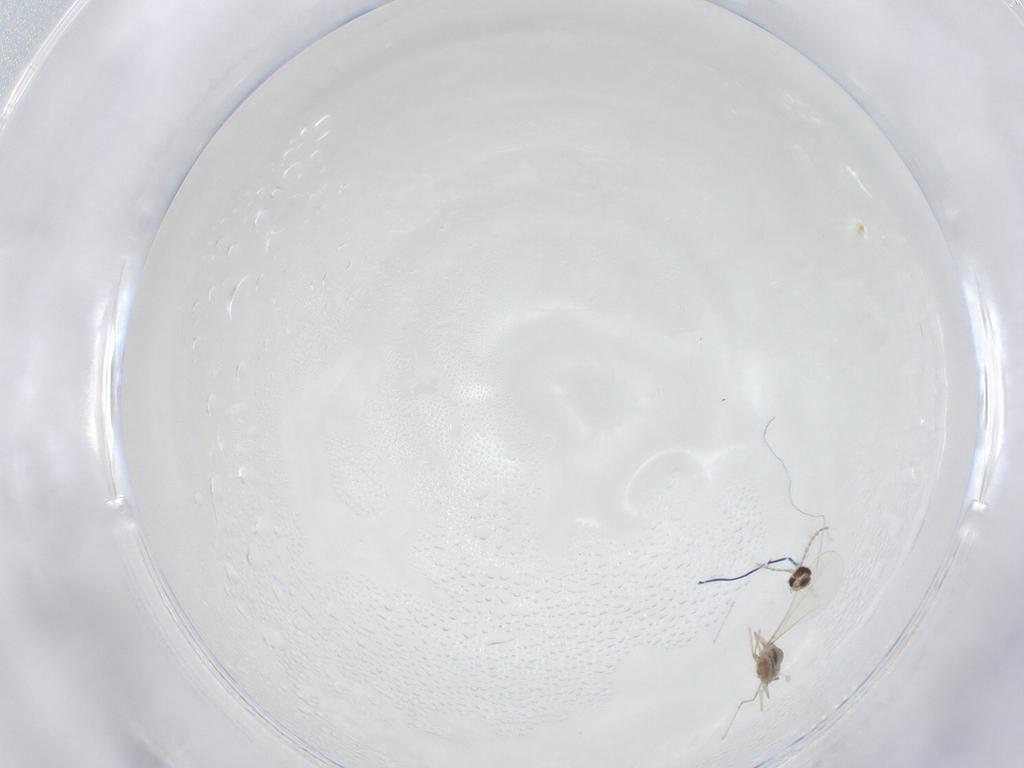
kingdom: Animalia
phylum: Arthropoda
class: Insecta
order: Diptera
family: Cecidomyiidae
